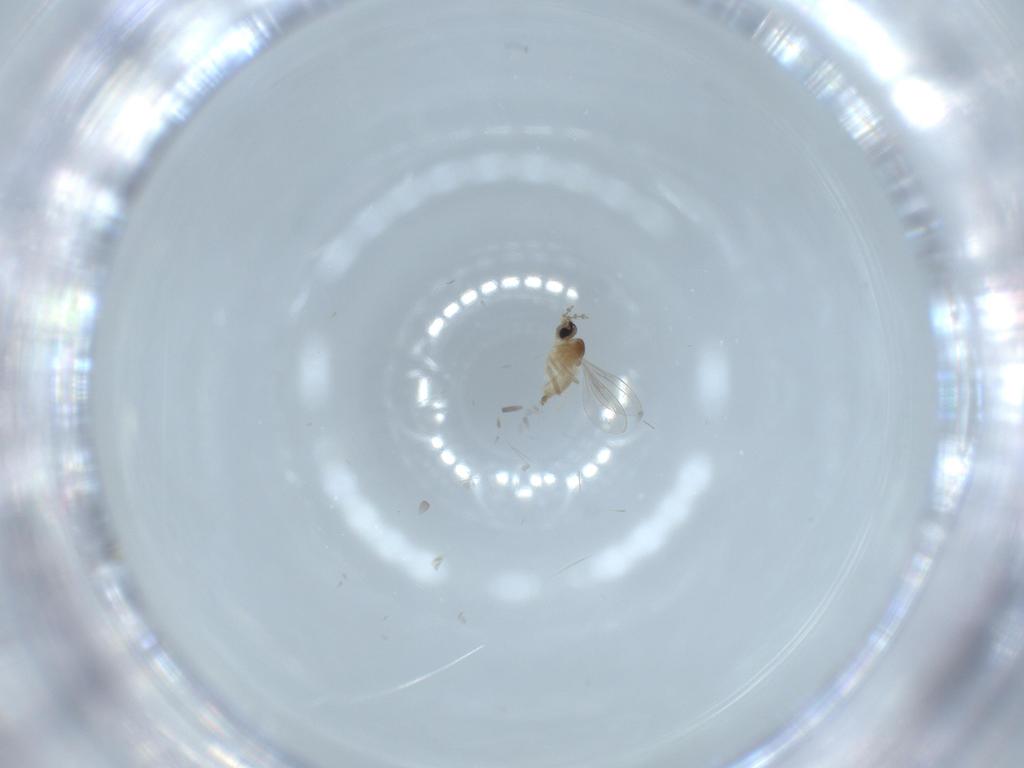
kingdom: Animalia
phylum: Arthropoda
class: Insecta
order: Diptera
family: Cecidomyiidae
